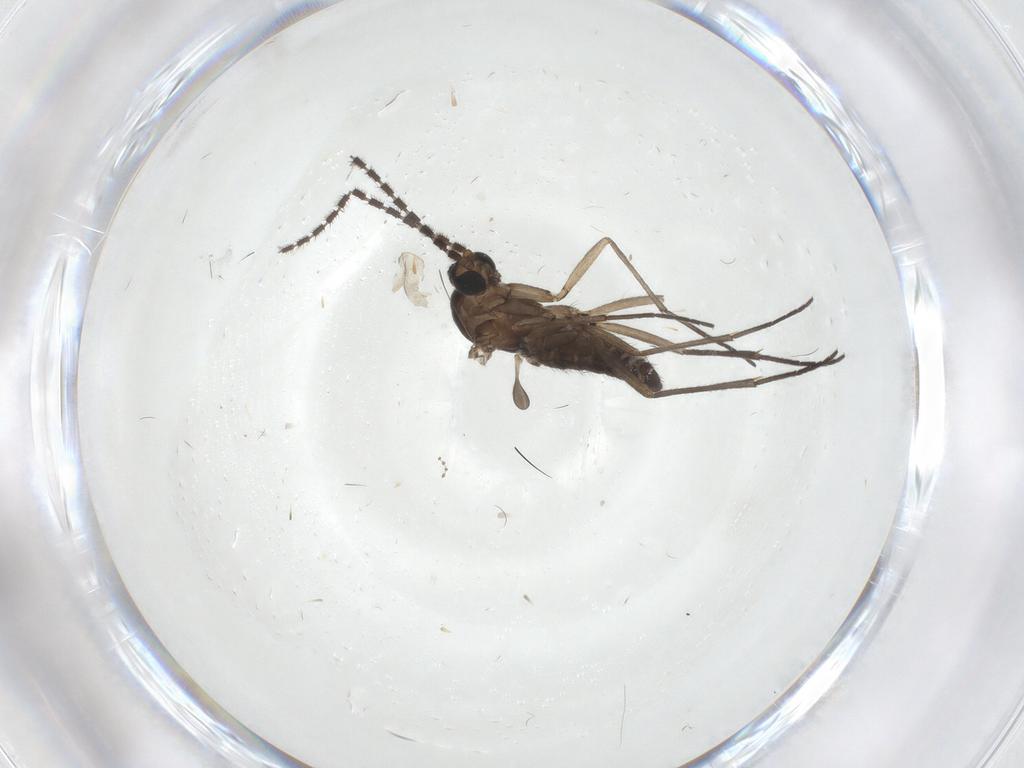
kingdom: Animalia
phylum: Arthropoda
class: Insecta
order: Diptera
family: Sciaridae
